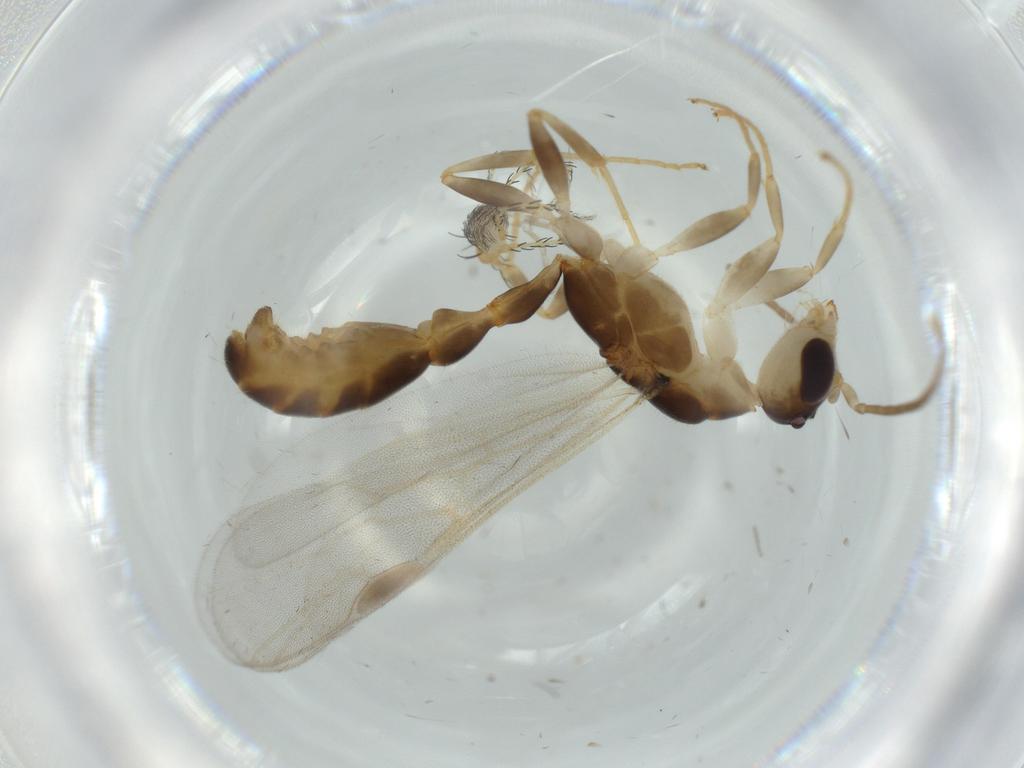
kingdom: Animalia
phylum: Arthropoda
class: Insecta
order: Hymenoptera
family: Formicidae
